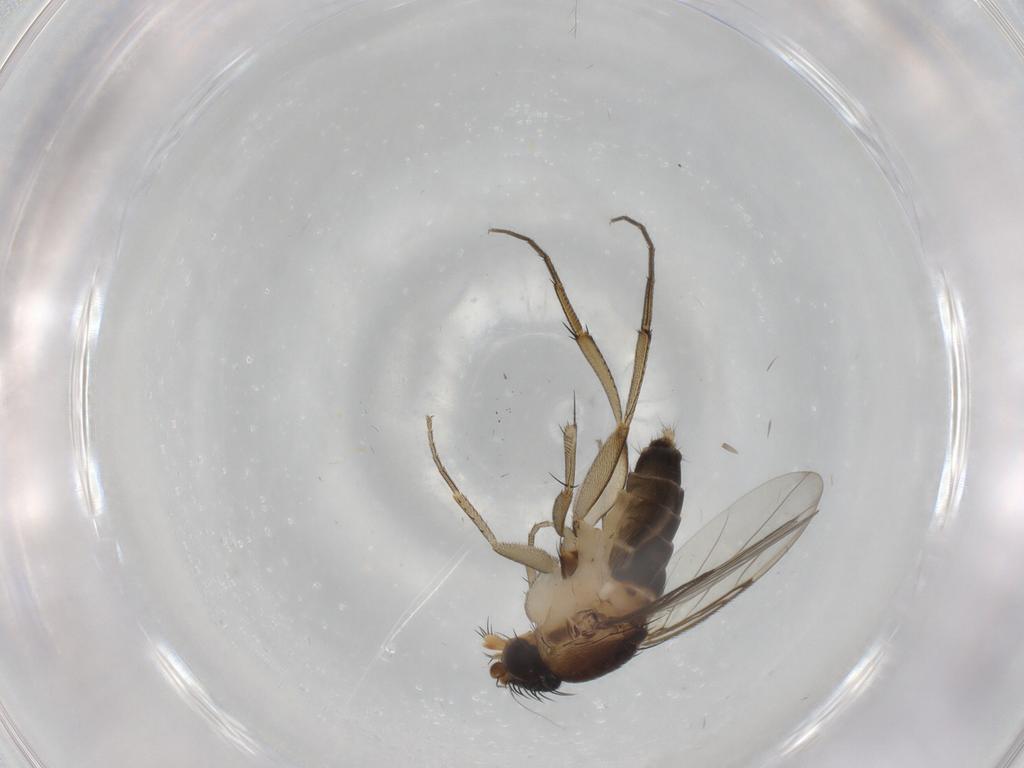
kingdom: Animalia
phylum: Arthropoda
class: Insecta
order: Diptera
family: Phoridae
